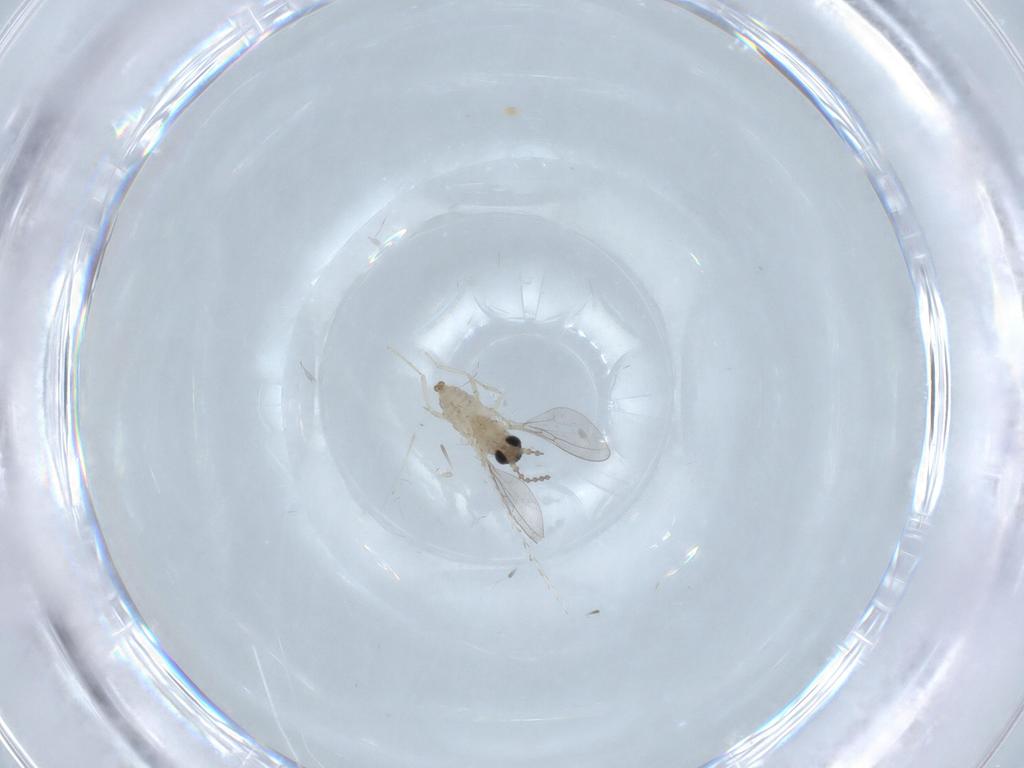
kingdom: Animalia
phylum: Arthropoda
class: Insecta
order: Diptera
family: Cecidomyiidae
